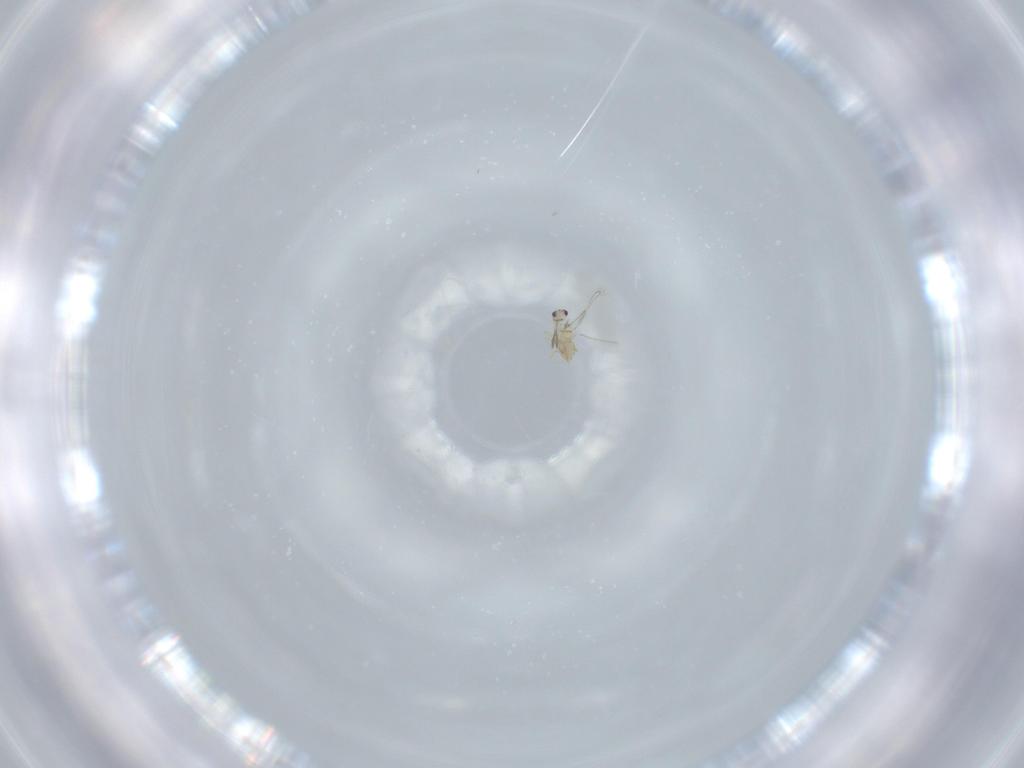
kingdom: Animalia
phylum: Arthropoda
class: Insecta
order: Hymenoptera
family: Mymaridae
